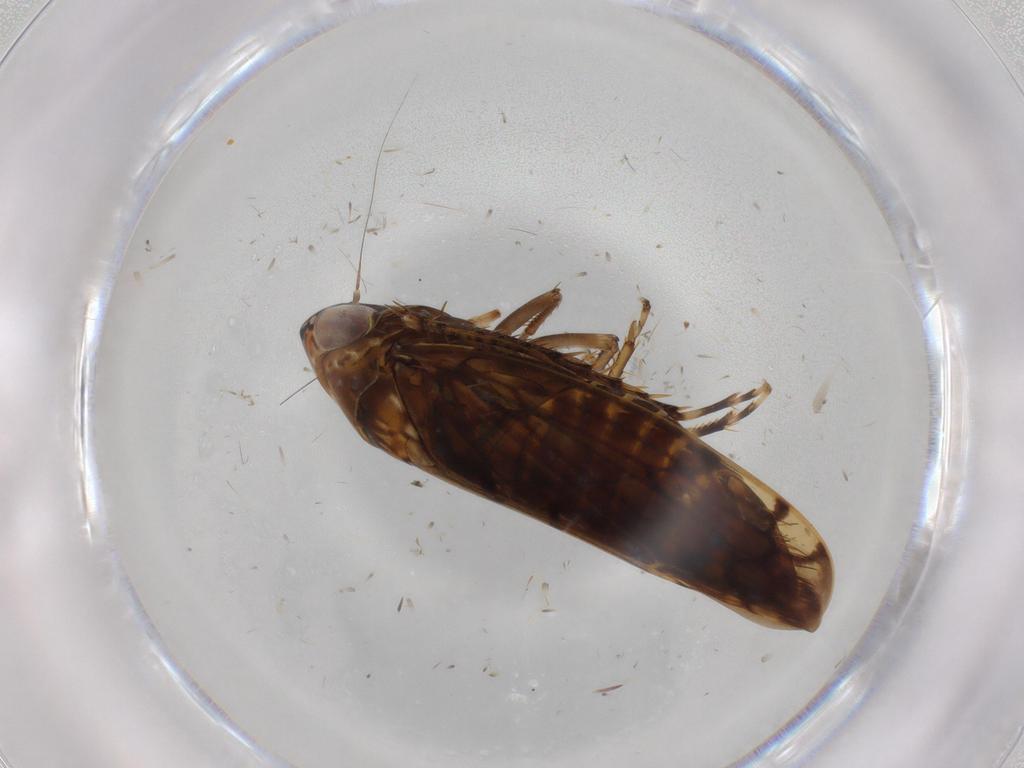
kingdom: Animalia
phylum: Arthropoda
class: Insecta
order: Hemiptera
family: Cicadellidae
